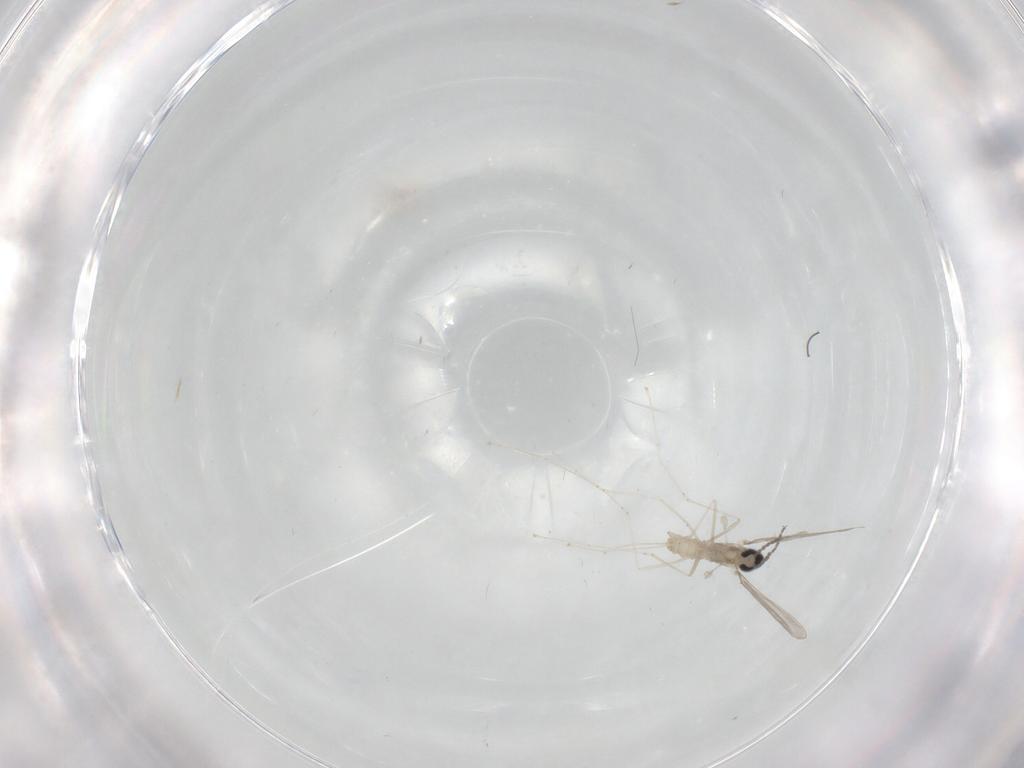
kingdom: Animalia
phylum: Arthropoda
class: Insecta
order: Diptera
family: Cecidomyiidae
